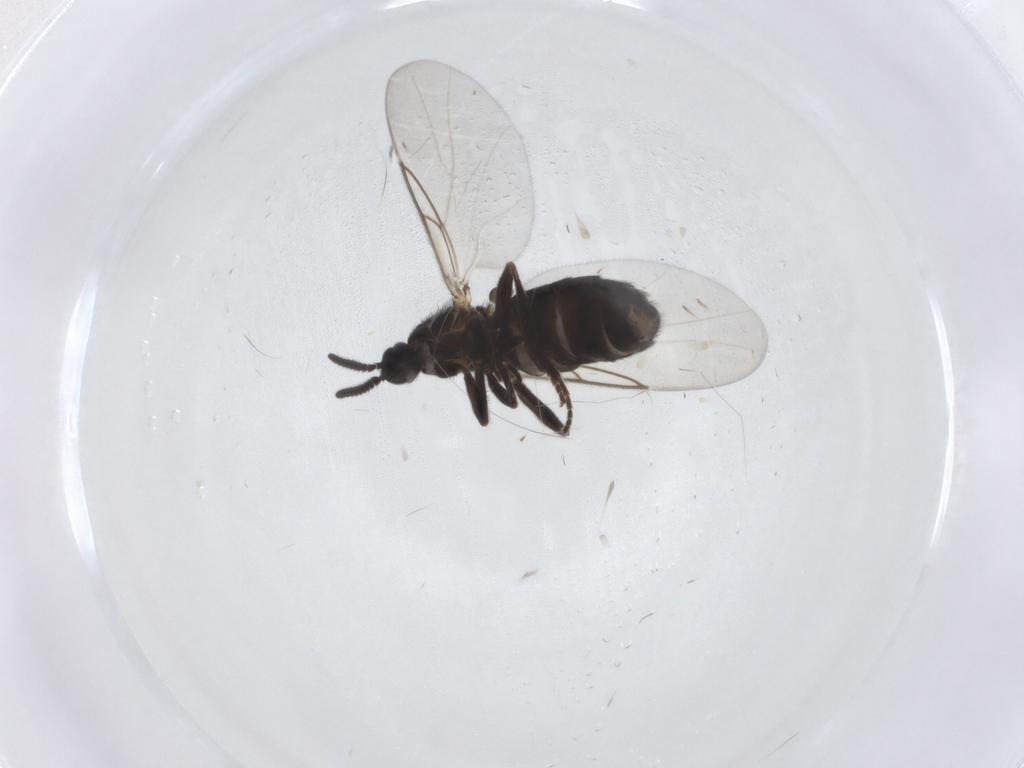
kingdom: Animalia
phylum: Arthropoda
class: Insecta
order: Diptera
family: Scatopsidae
